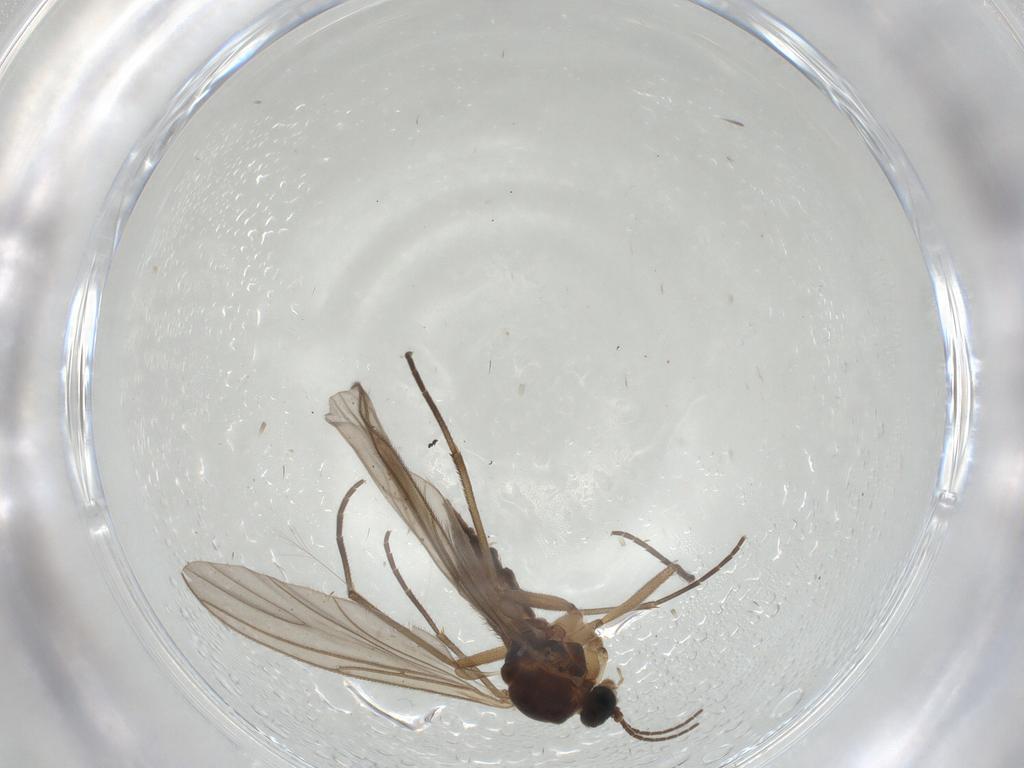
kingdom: Animalia
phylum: Arthropoda
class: Insecta
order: Diptera
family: Sciaridae
